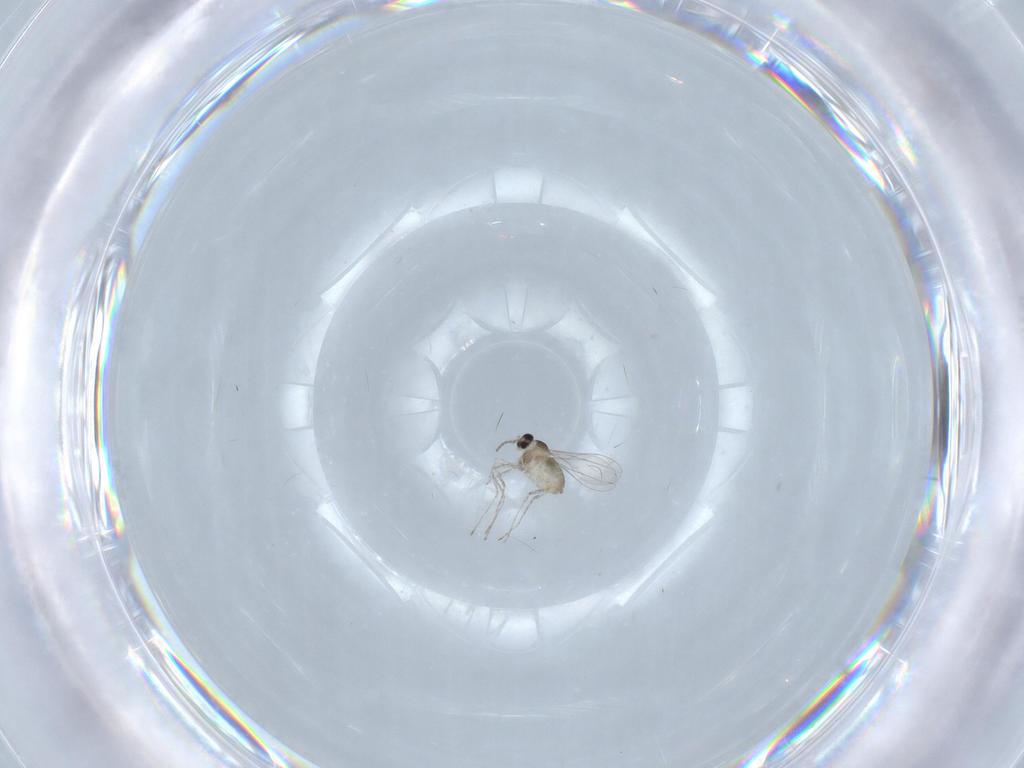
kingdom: Animalia
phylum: Arthropoda
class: Insecta
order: Diptera
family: Cecidomyiidae
